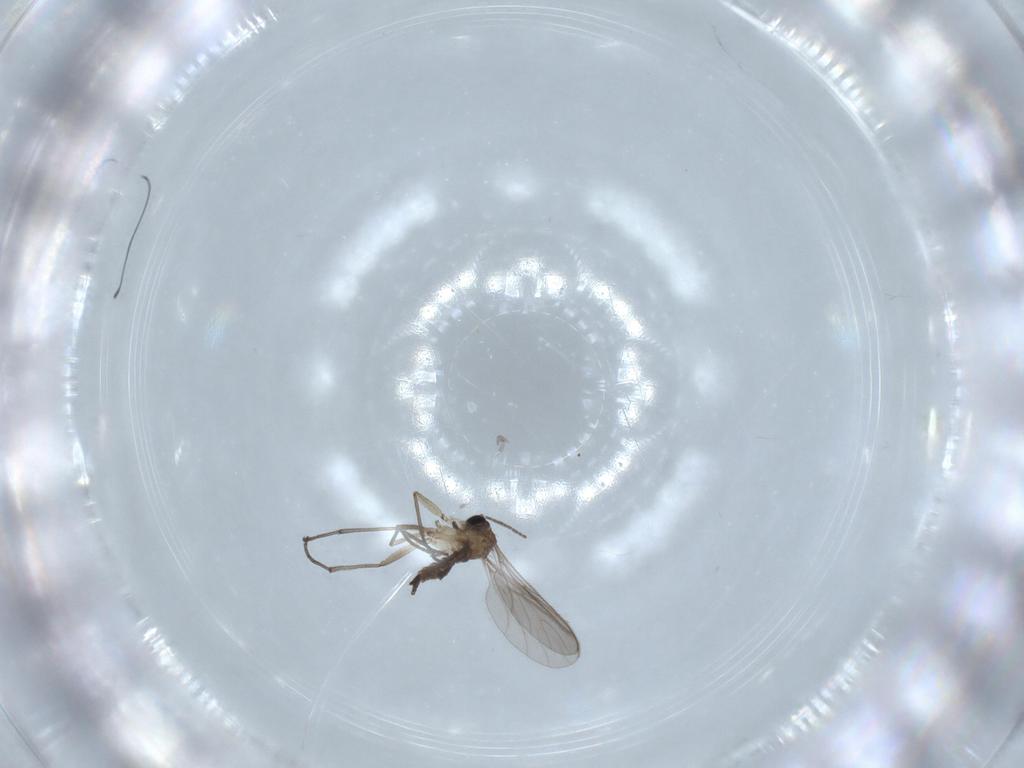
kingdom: Animalia
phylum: Arthropoda
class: Insecta
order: Diptera
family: Sciaridae
